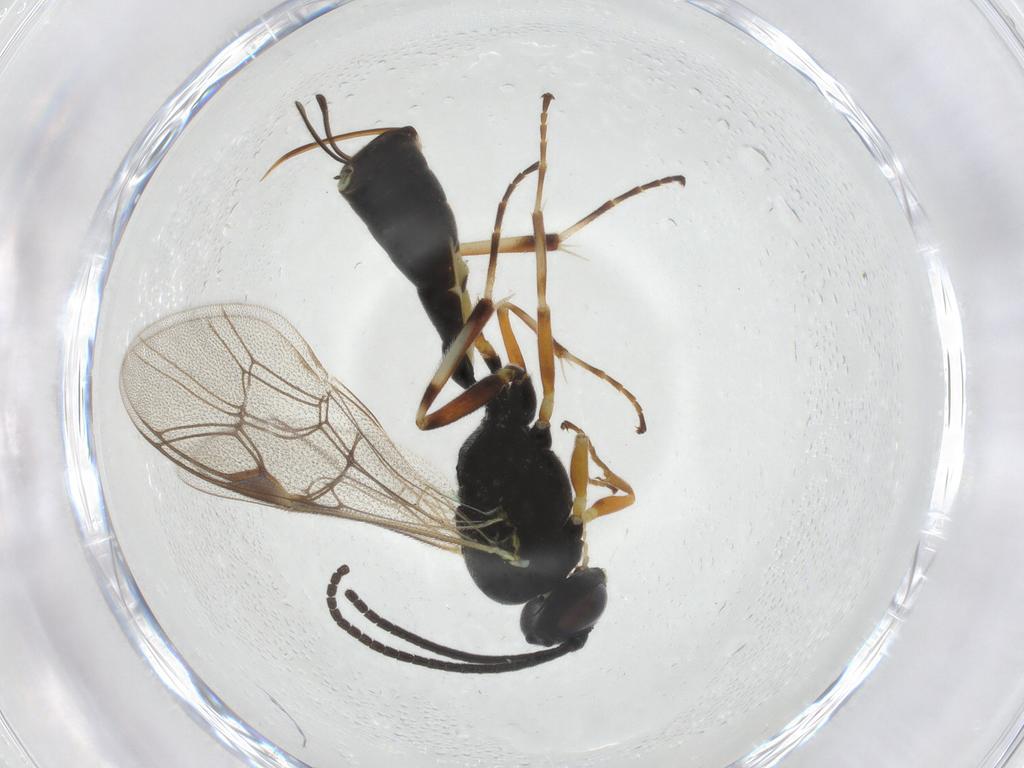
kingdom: Animalia
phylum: Arthropoda
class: Insecta
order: Hymenoptera
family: Ichneumonidae
